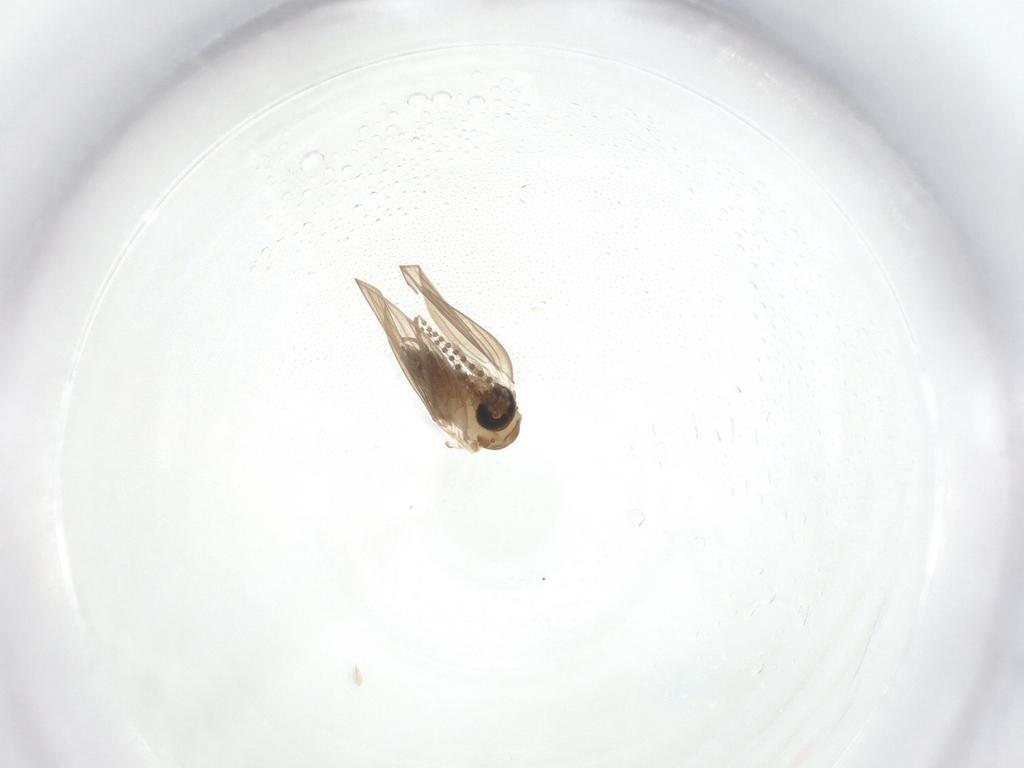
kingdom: Animalia
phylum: Arthropoda
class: Insecta
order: Diptera
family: Psychodidae
